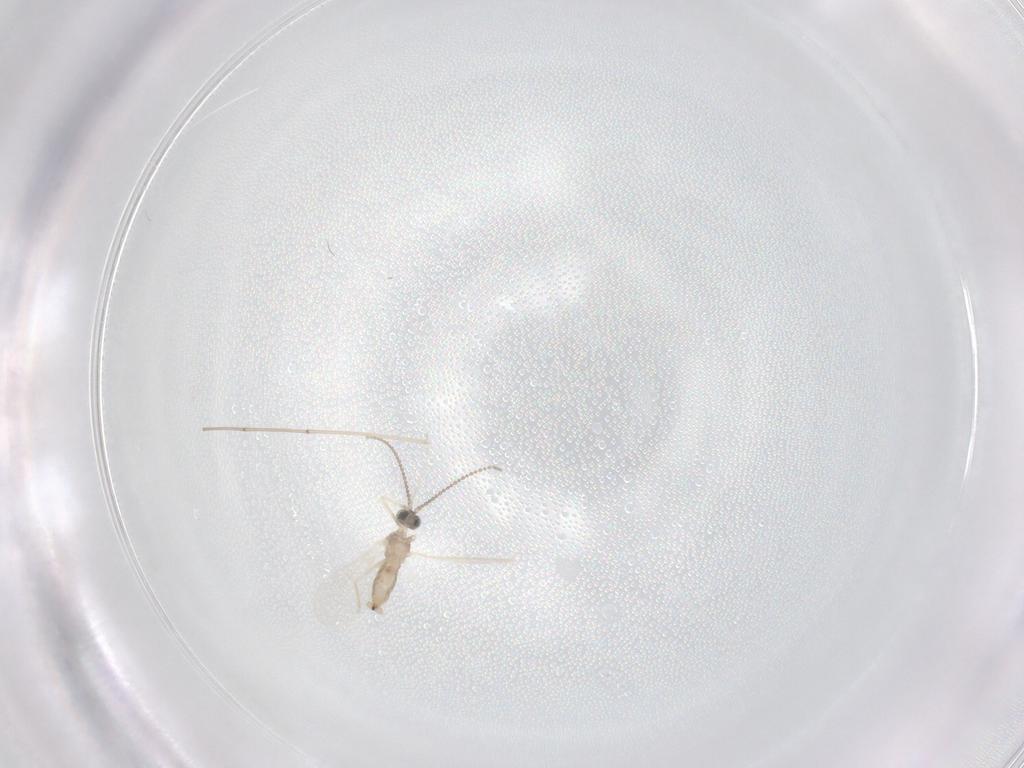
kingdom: Animalia
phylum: Arthropoda
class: Insecta
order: Diptera
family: Cecidomyiidae
